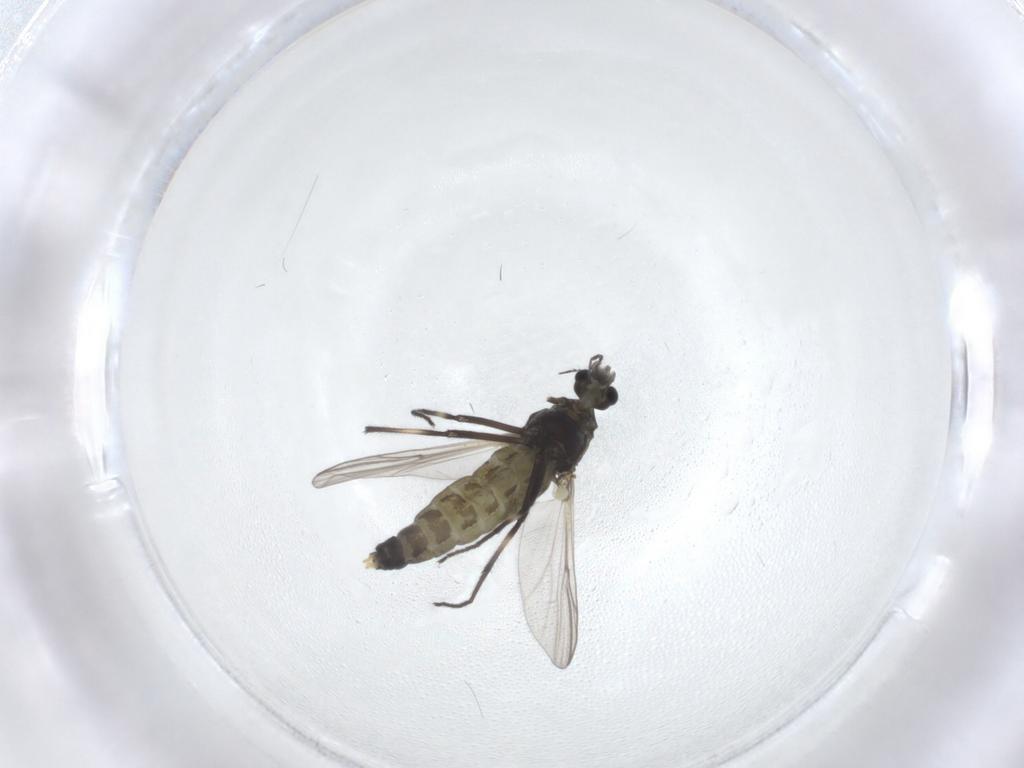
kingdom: Animalia
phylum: Arthropoda
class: Insecta
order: Diptera
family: Chironomidae
